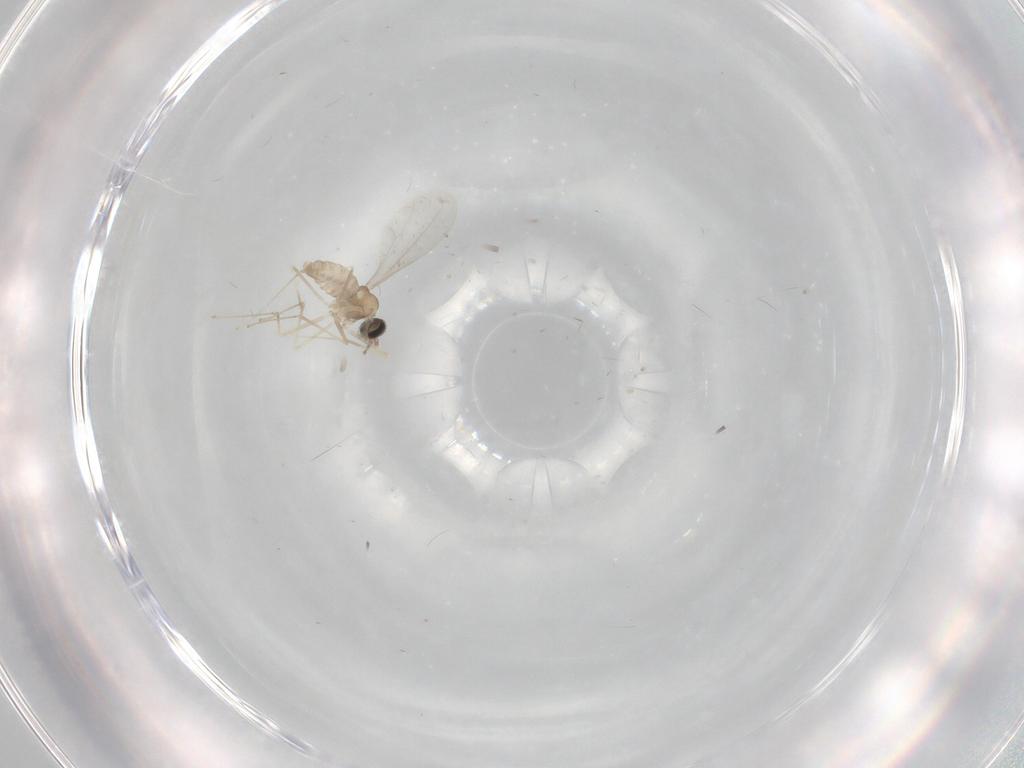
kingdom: Animalia
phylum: Arthropoda
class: Insecta
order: Diptera
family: Cecidomyiidae
